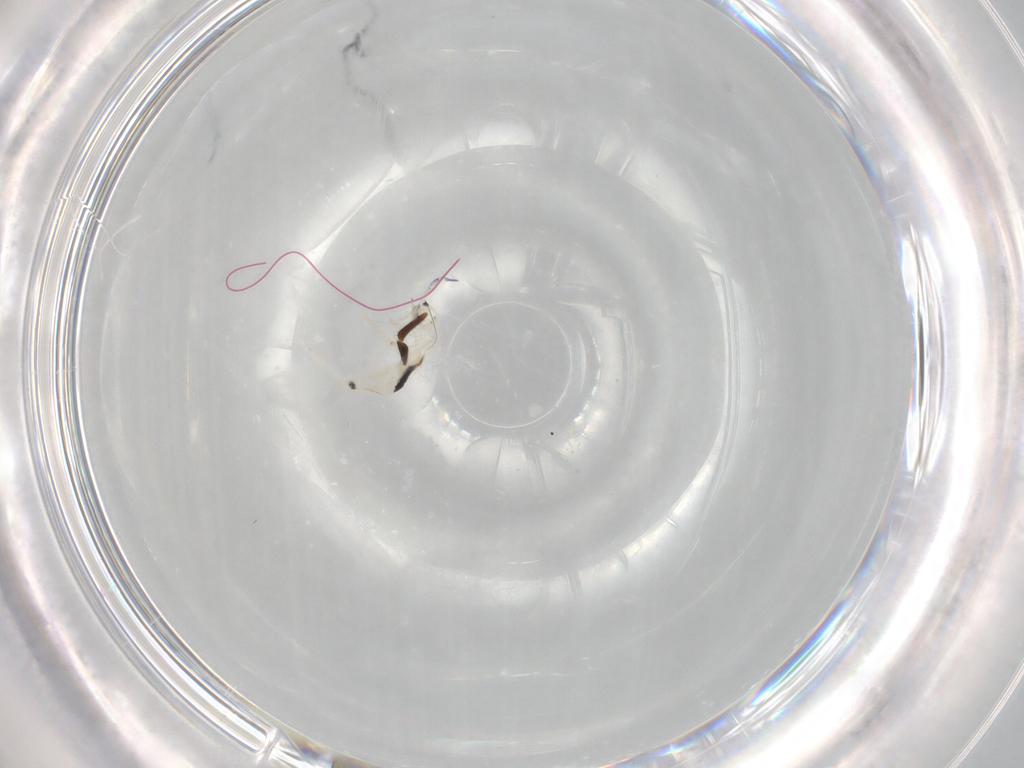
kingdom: Animalia
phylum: Arthropoda
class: Collembola
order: Entomobryomorpha
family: Entomobryidae
